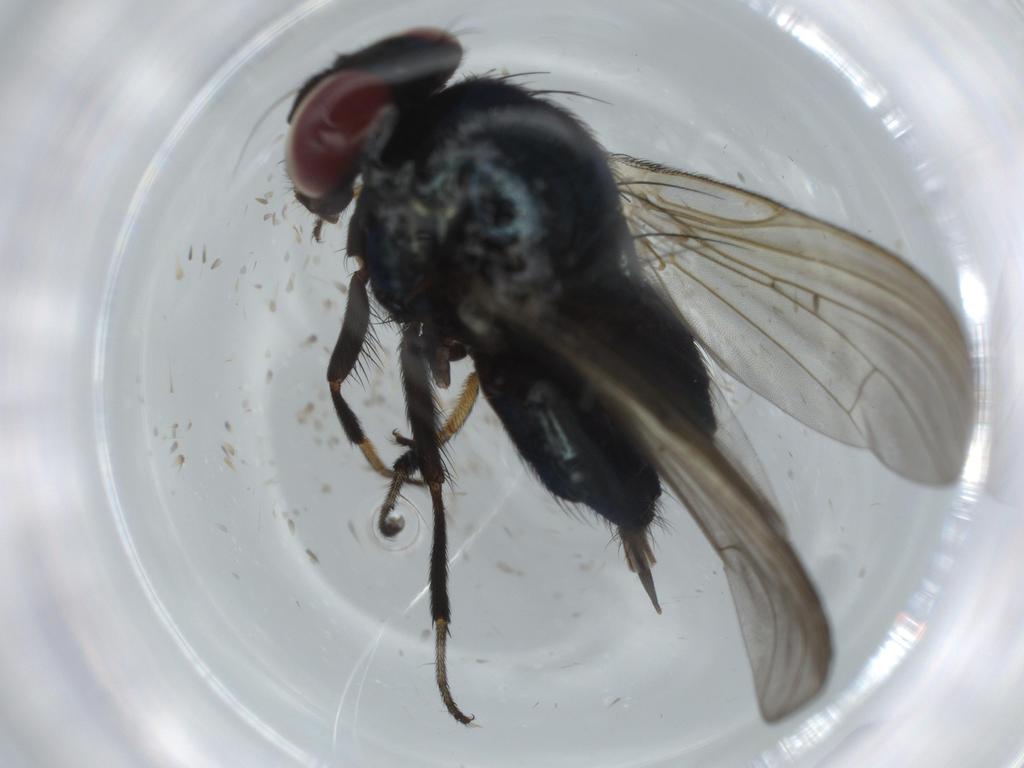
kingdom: Animalia
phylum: Arthropoda
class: Insecta
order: Diptera
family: Lonchaeidae
